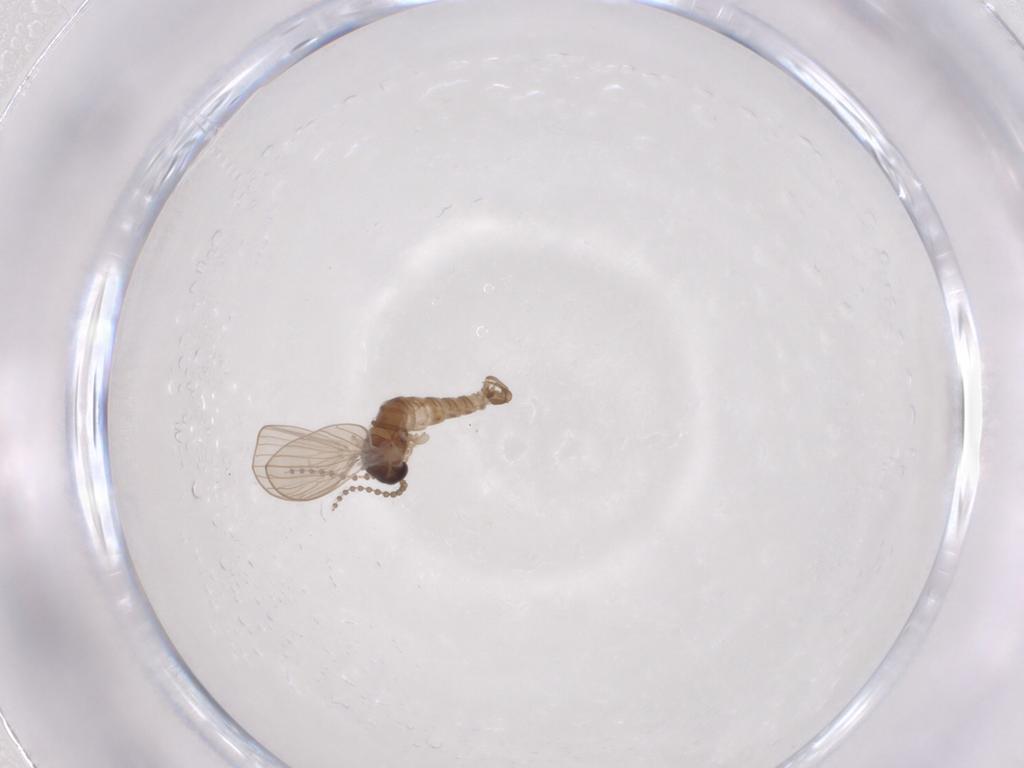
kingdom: Animalia
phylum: Arthropoda
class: Insecta
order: Diptera
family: Psychodidae
